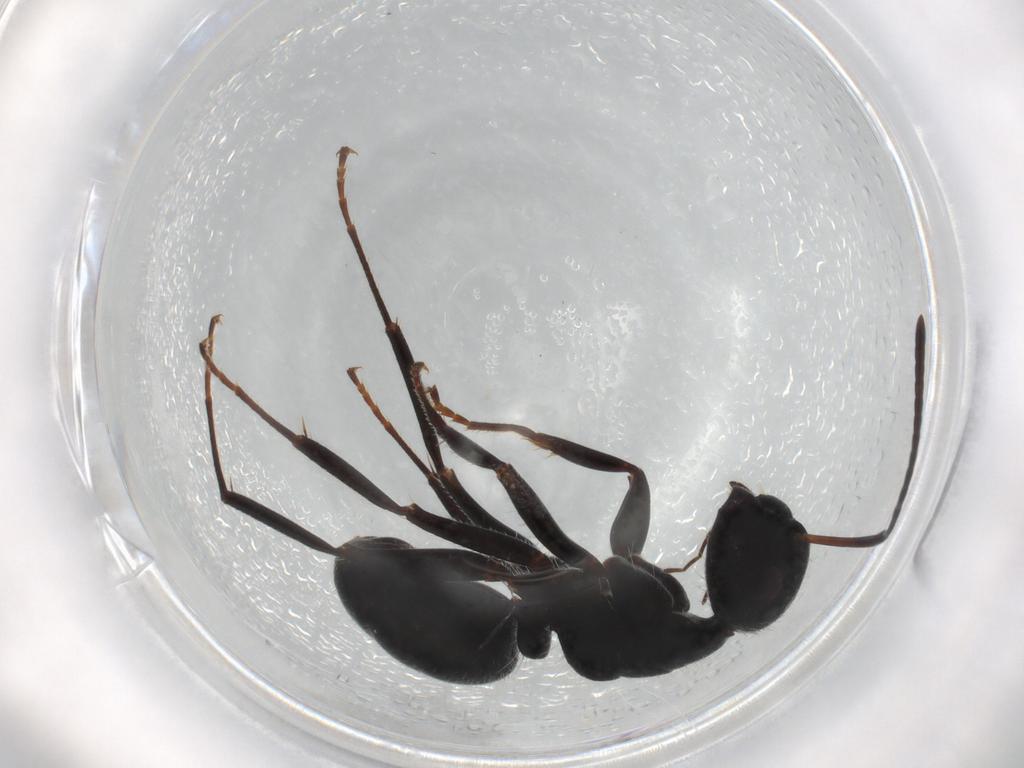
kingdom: Animalia
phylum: Arthropoda
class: Insecta
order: Hymenoptera
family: Formicidae
